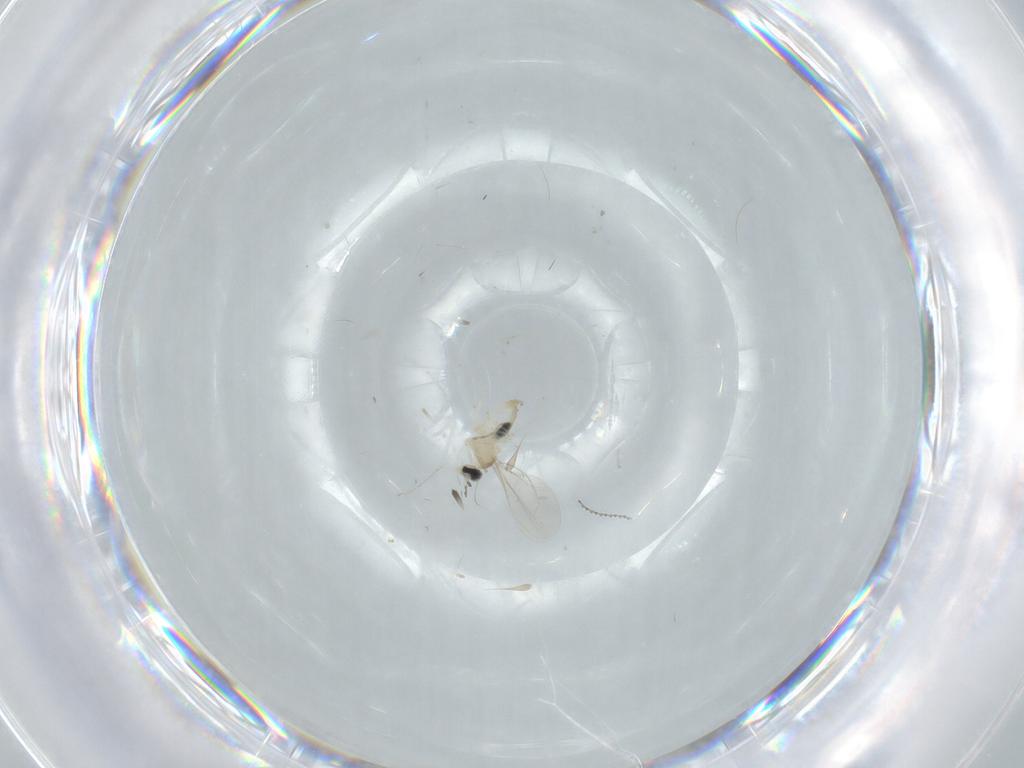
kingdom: Animalia
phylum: Arthropoda
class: Insecta
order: Diptera
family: Cecidomyiidae
